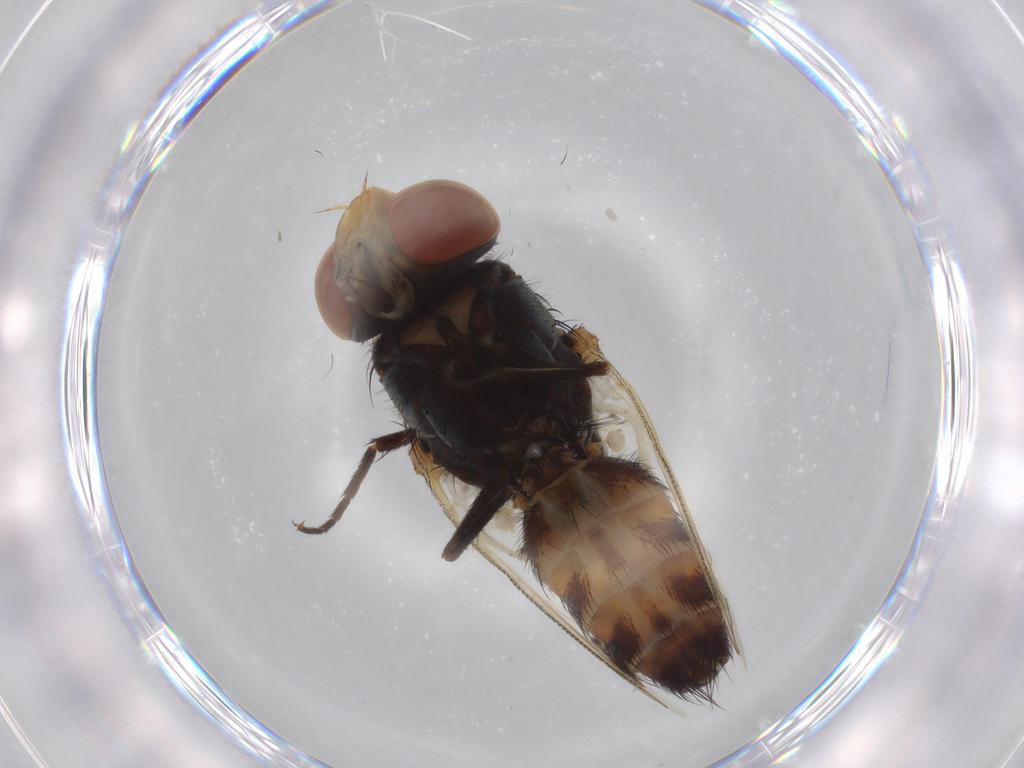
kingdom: Animalia
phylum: Arthropoda
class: Insecta
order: Diptera
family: Sarcophagidae
